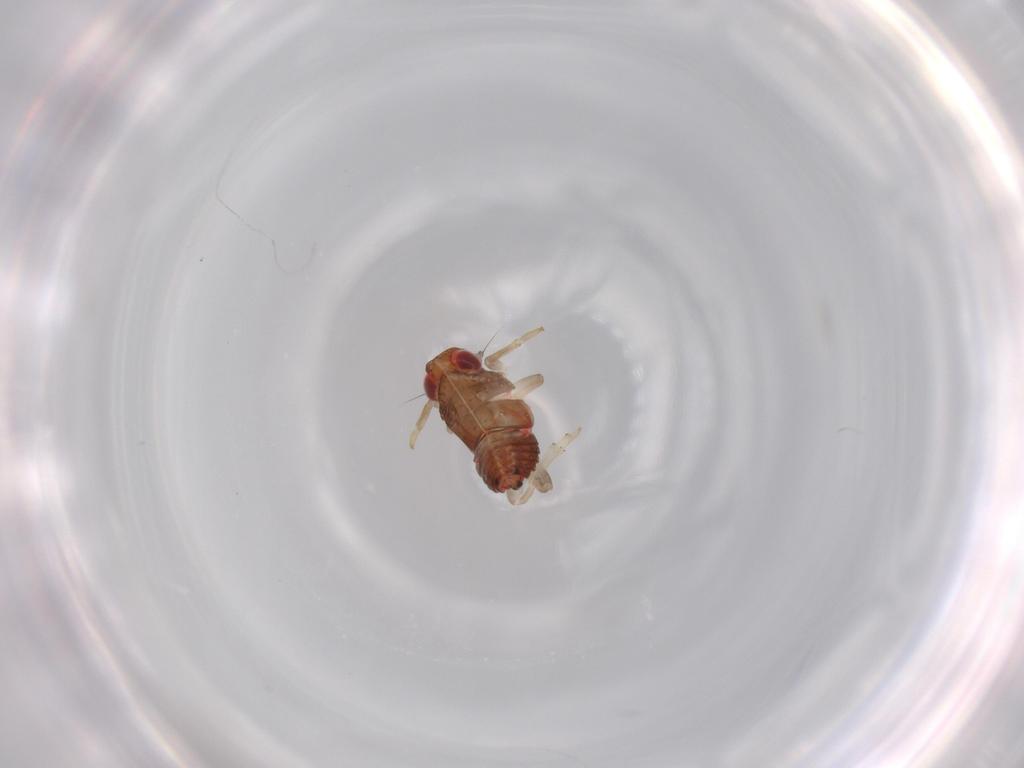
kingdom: Animalia
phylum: Arthropoda
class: Insecta
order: Hemiptera
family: Issidae
